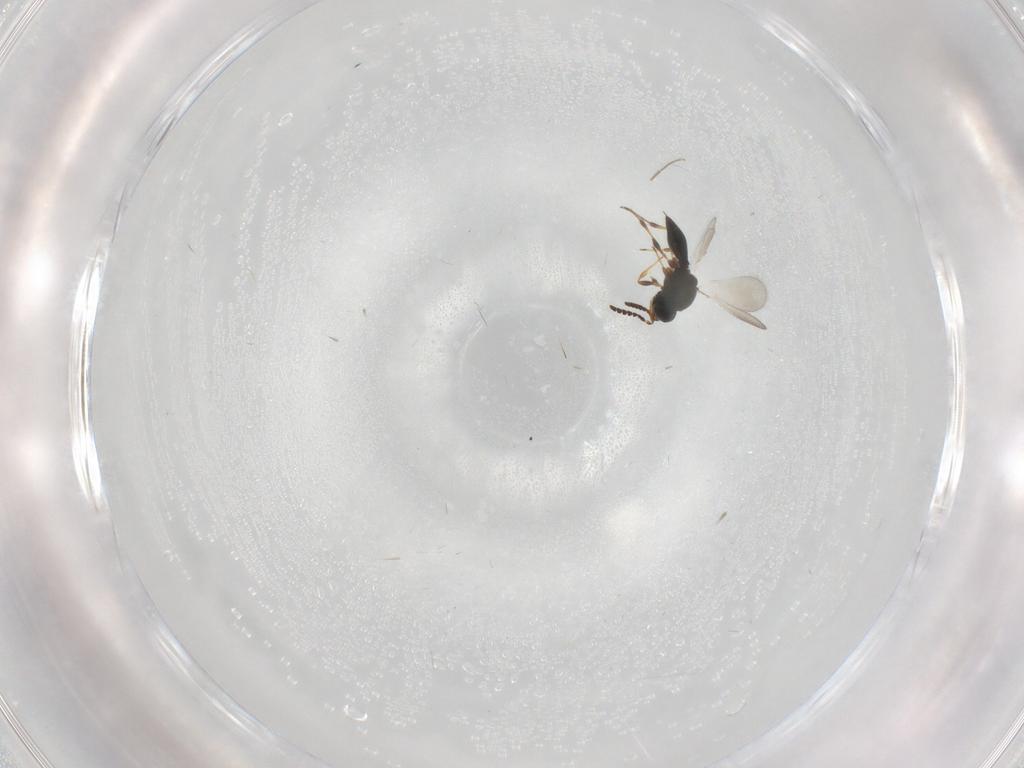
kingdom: Animalia
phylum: Arthropoda
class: Insecta
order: Hymenoptera
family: Platygastridae
